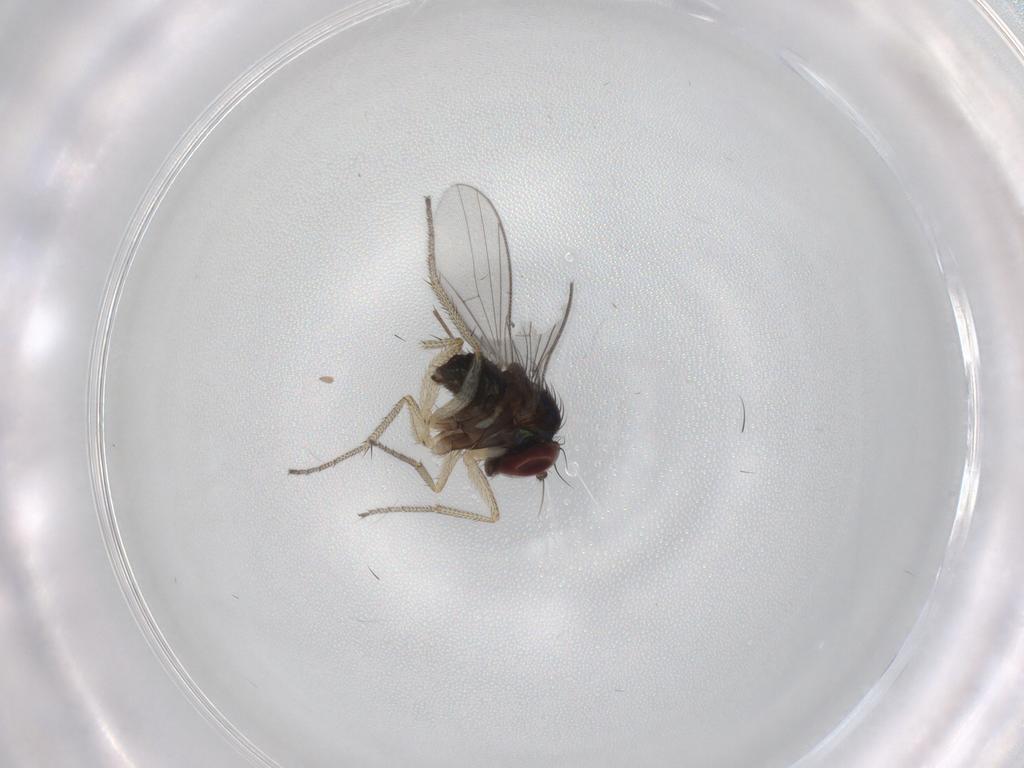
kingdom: Animalia
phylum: Arthropoda
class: Insecta
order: Diptera
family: Chironomidae
